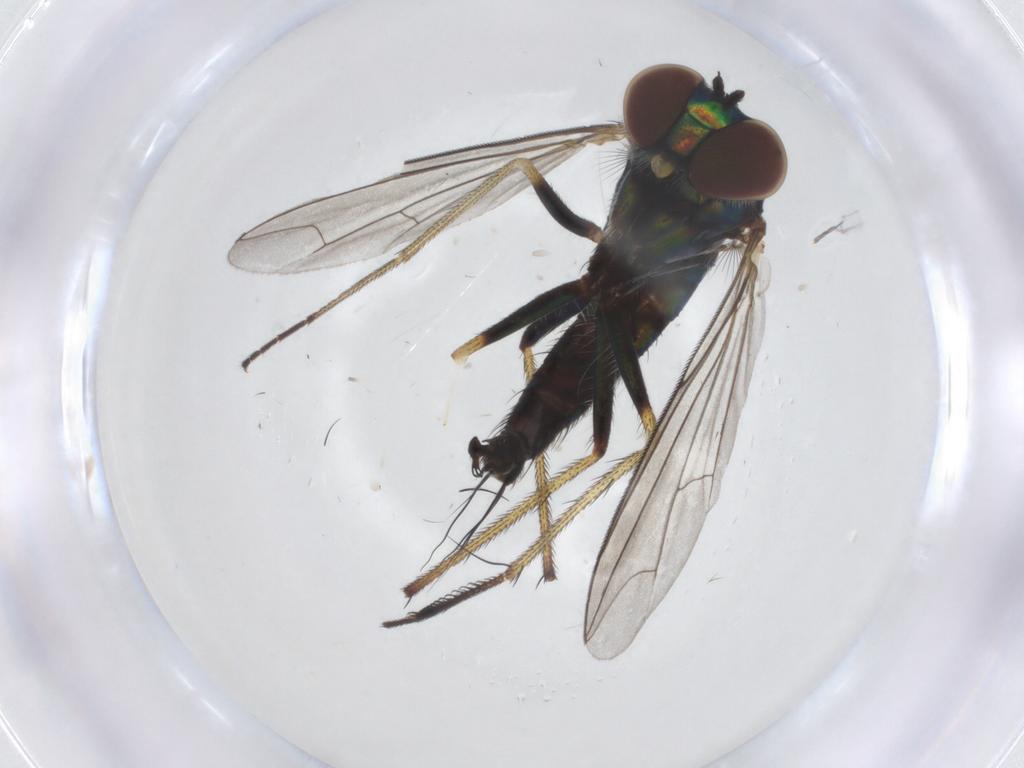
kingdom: Animalia
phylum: Arthropoda
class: Insecta
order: Diptera
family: Dolichopodidae
